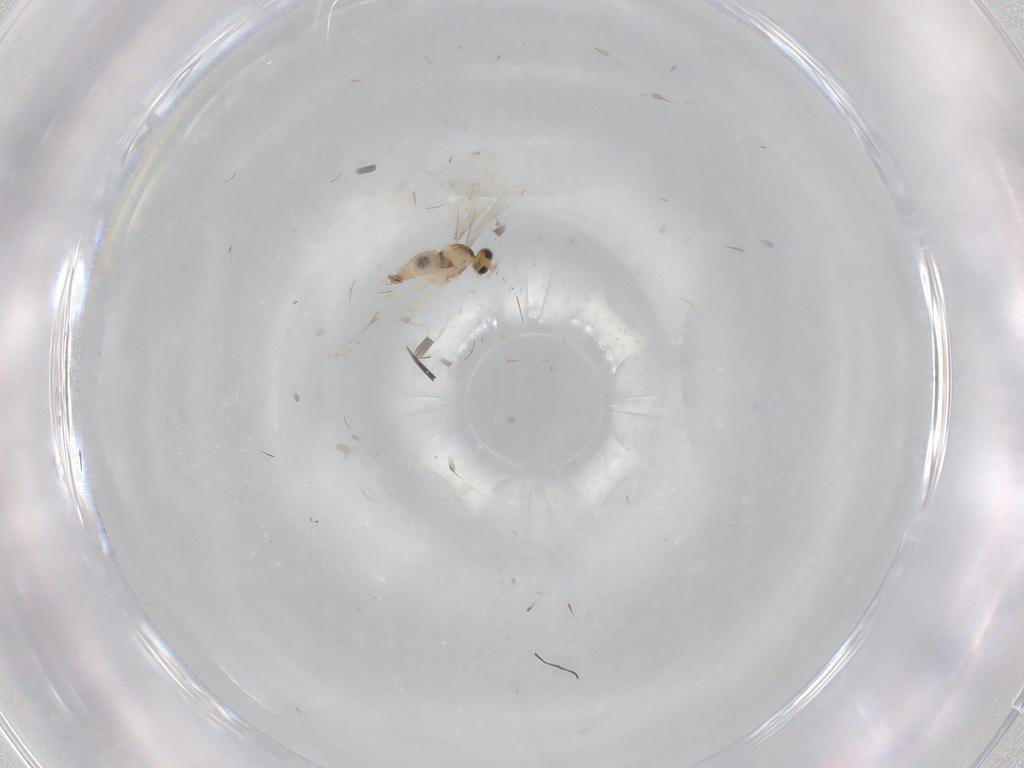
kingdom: Animalia
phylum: Arthropoda
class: Insecta
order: Diptera
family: Cecidomyiidae
